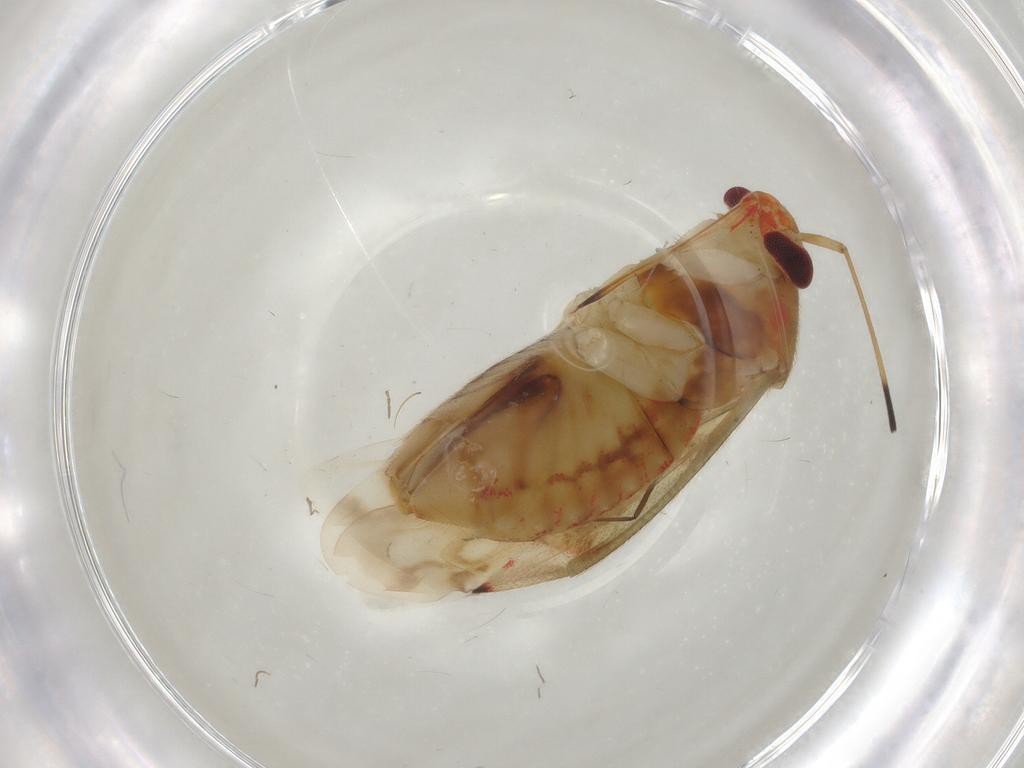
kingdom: Animalia
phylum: Arthropoda
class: Insecta
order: Hemiptera
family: Miridae
